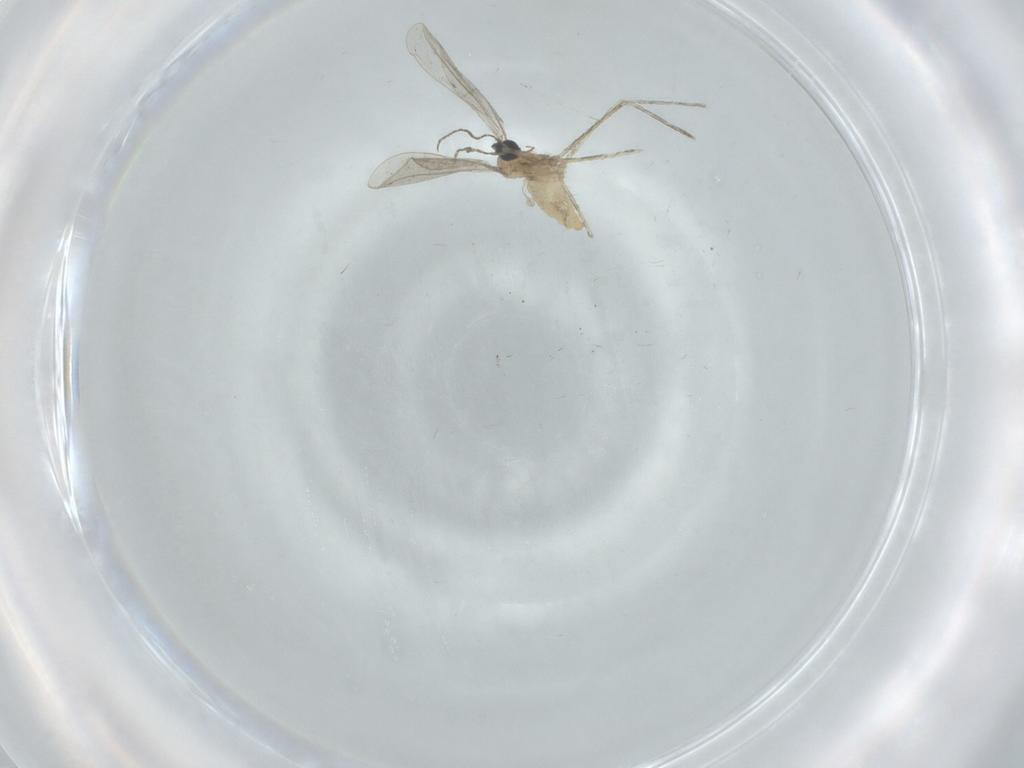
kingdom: Animalia
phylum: Arthropoda
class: Insecta
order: Diptera
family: Cecidomyiidae
